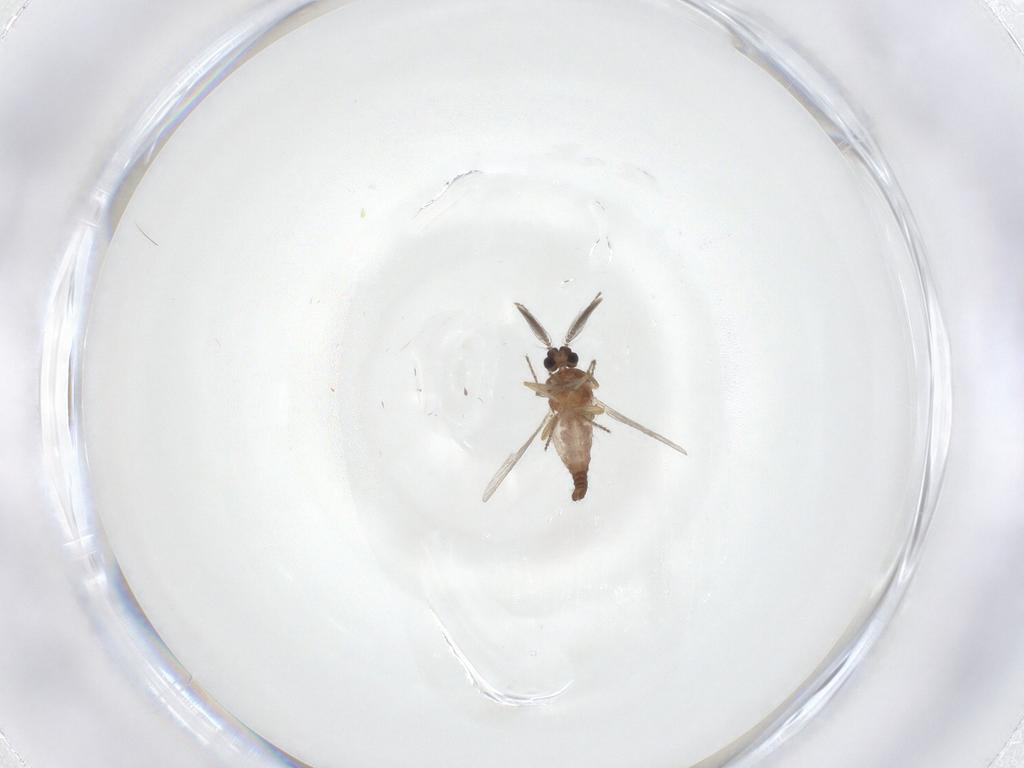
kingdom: Animalia
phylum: Arthropoda
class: Insecta
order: Diptera
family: Ceratopogonidae
